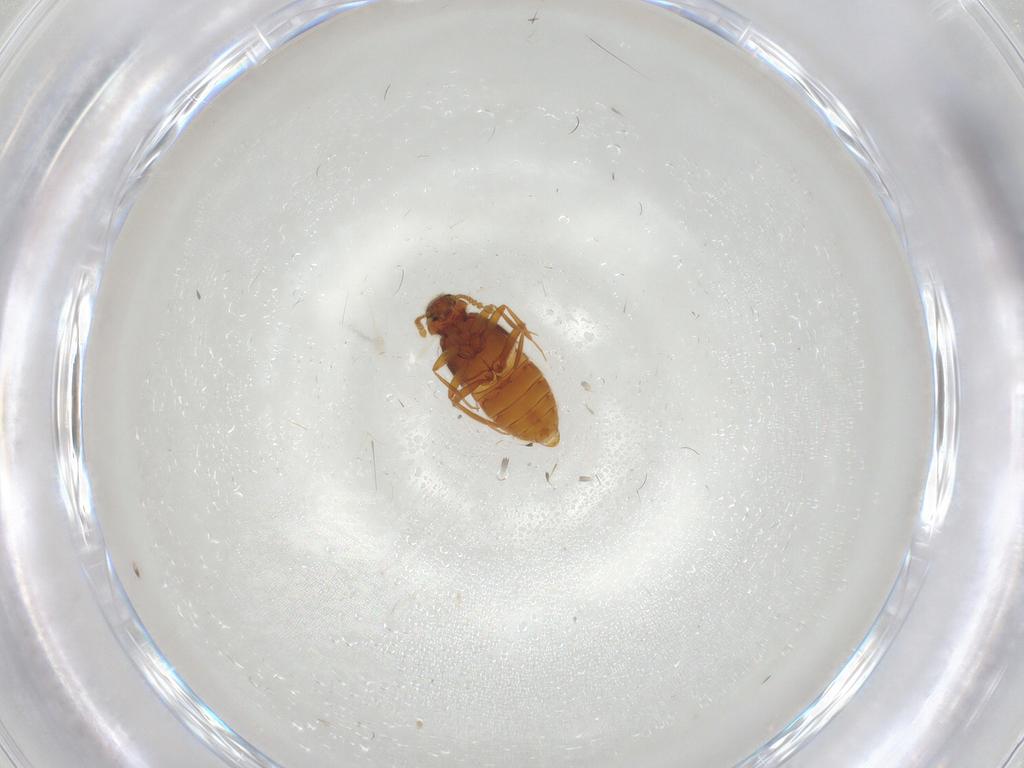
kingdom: Animalia
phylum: Arthropoda
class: Insecta
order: Coleoptera
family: Staphylinidae
